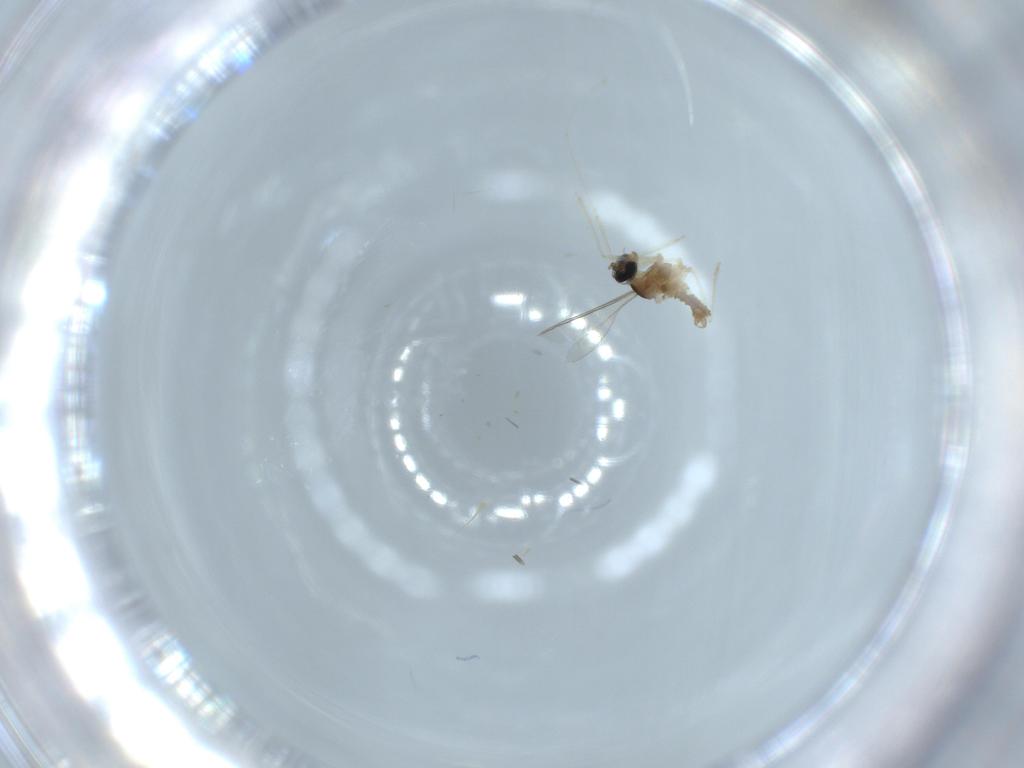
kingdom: Animalia
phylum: Arthropoda
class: Insecta
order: Diptera
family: Cecidomyiidae
